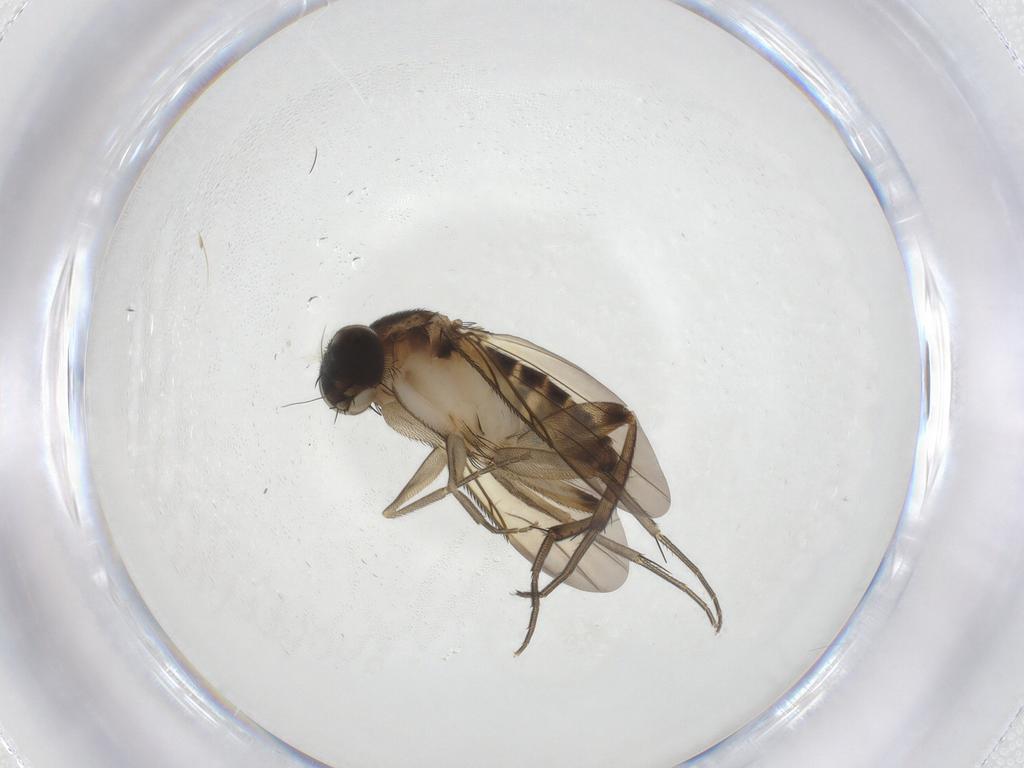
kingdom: Animalia
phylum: Arthropoda
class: Insecta
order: Diptera
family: Phoridae
